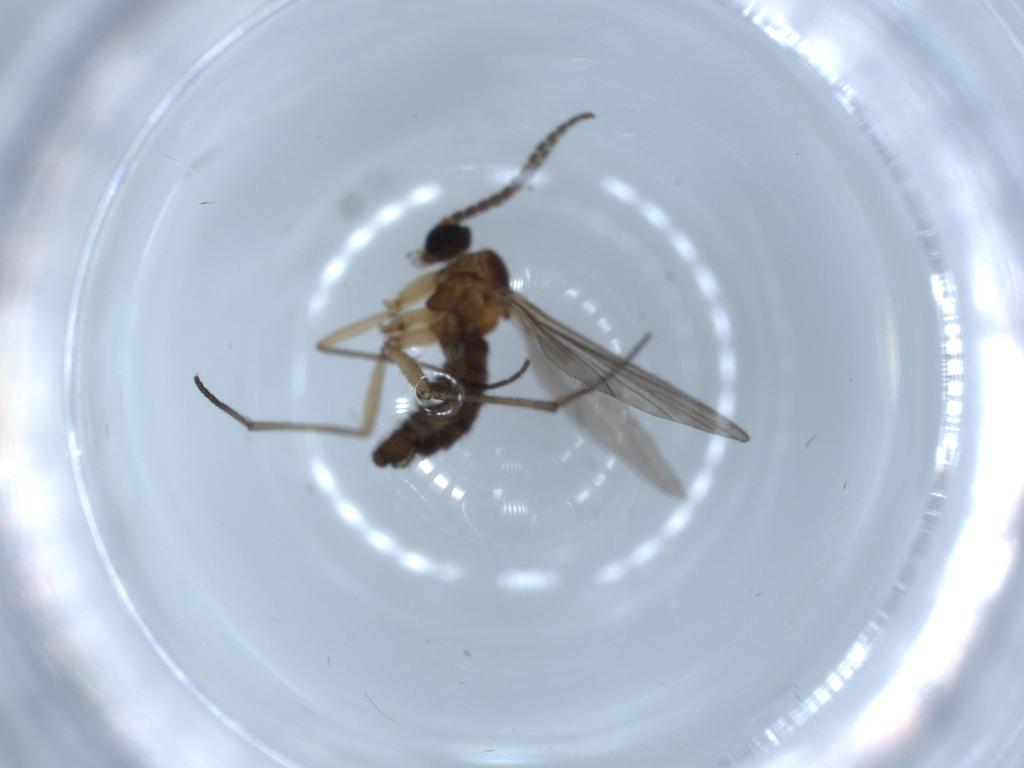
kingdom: Animalia
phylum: Arthropoda
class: Insecta
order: Diptera
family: Sciaridae
